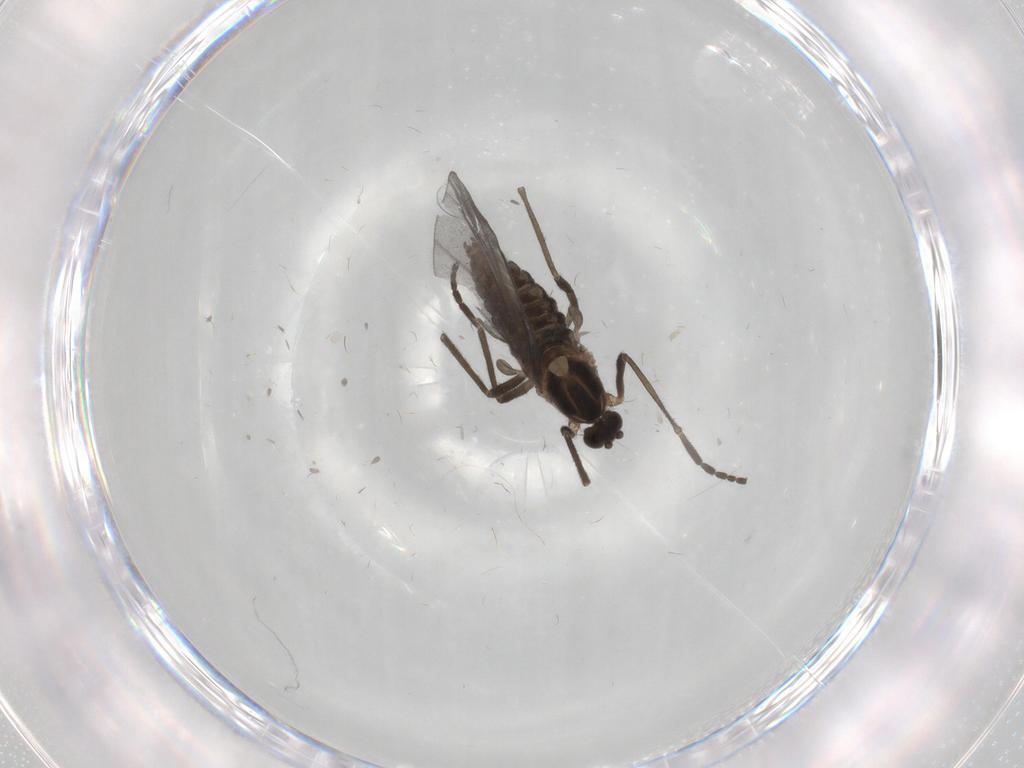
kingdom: Animalia
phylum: Arthropoda
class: Insecta
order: Diptera
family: Cecidomyiidae
